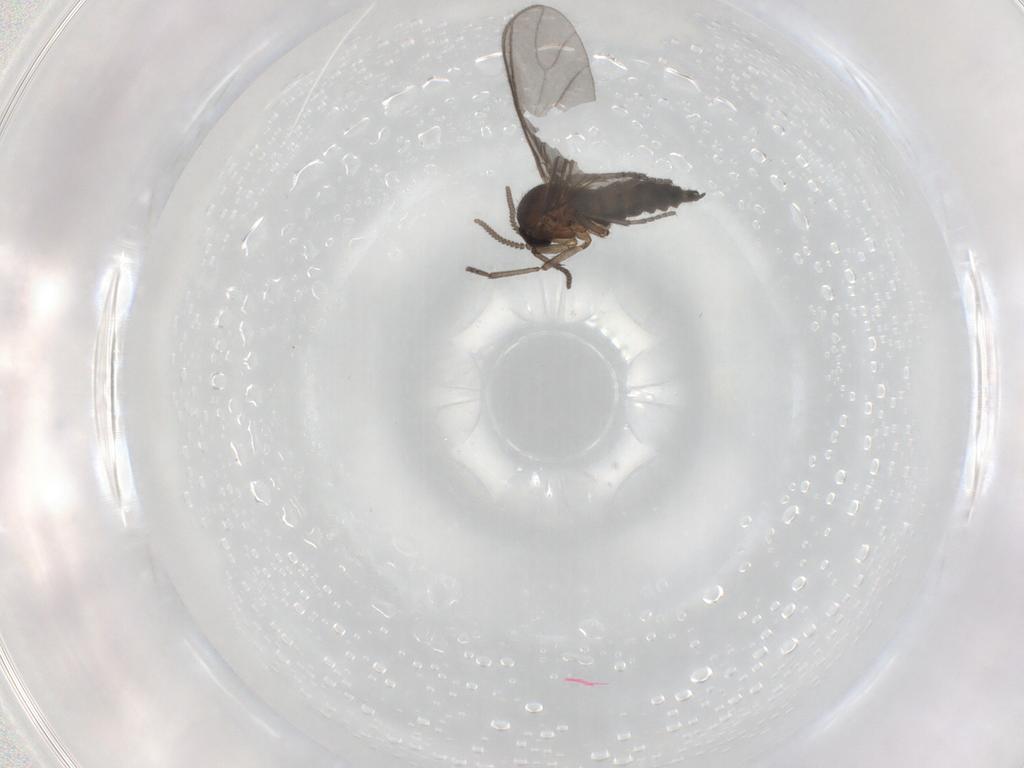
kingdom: Animalia
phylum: Arthropoda
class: Insecta
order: Diptera
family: Sciaridae
